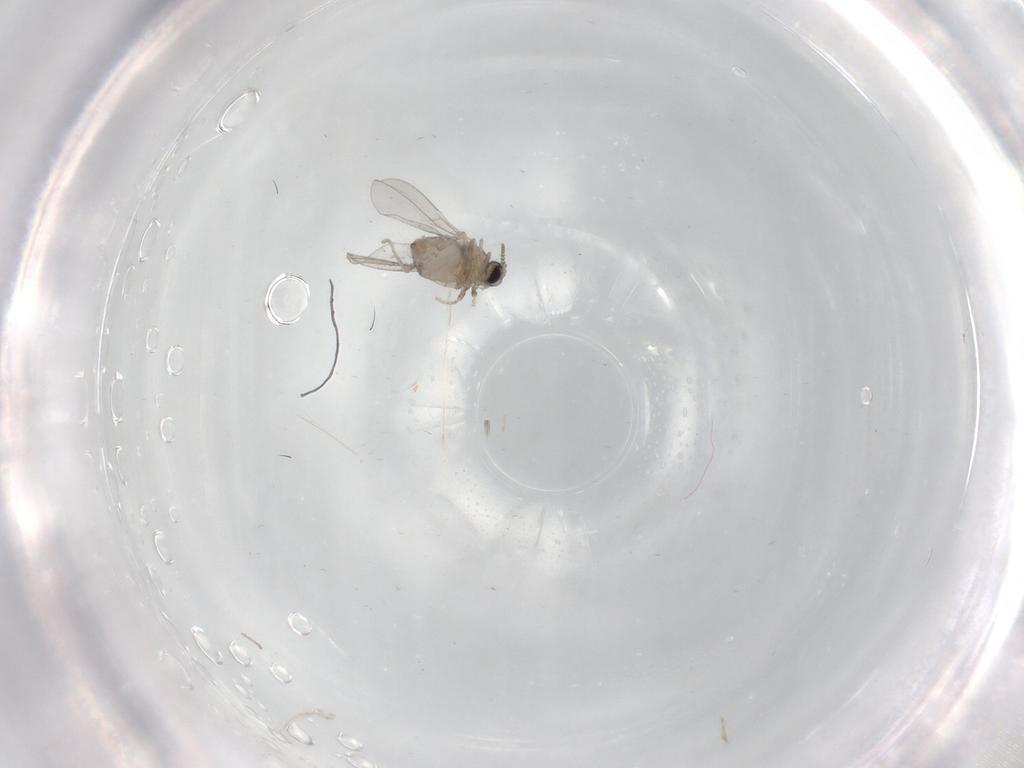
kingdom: Animalia
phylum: Arthropoda
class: Insecta
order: Diptera
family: Cecidomyiidae
